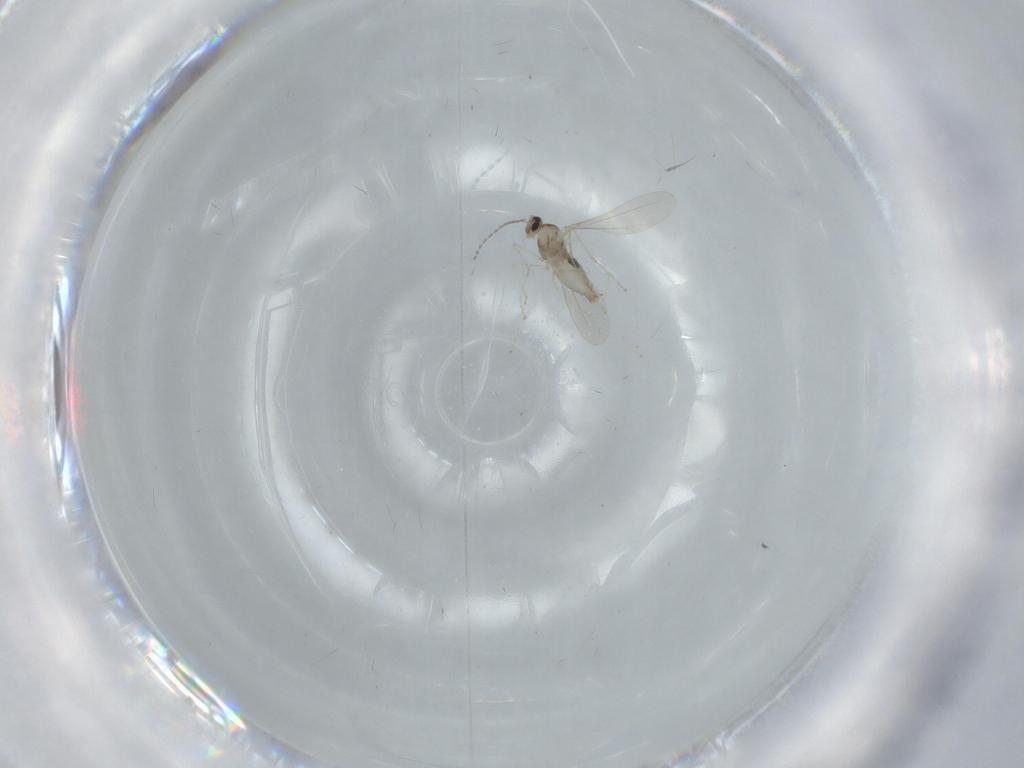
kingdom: Animalia
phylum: Arthropoda
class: Insecta
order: Diptera
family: Cecidomyiidae
